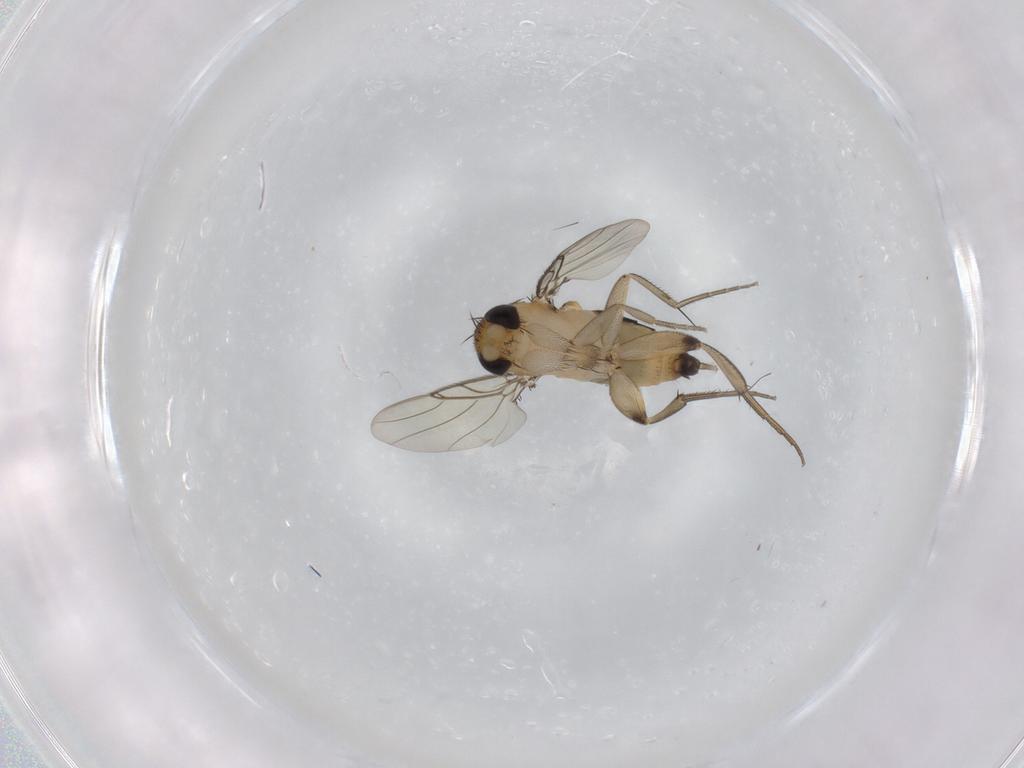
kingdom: Animalia
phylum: Arthropoda
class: Insecta
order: Diptera
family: Phoridae
